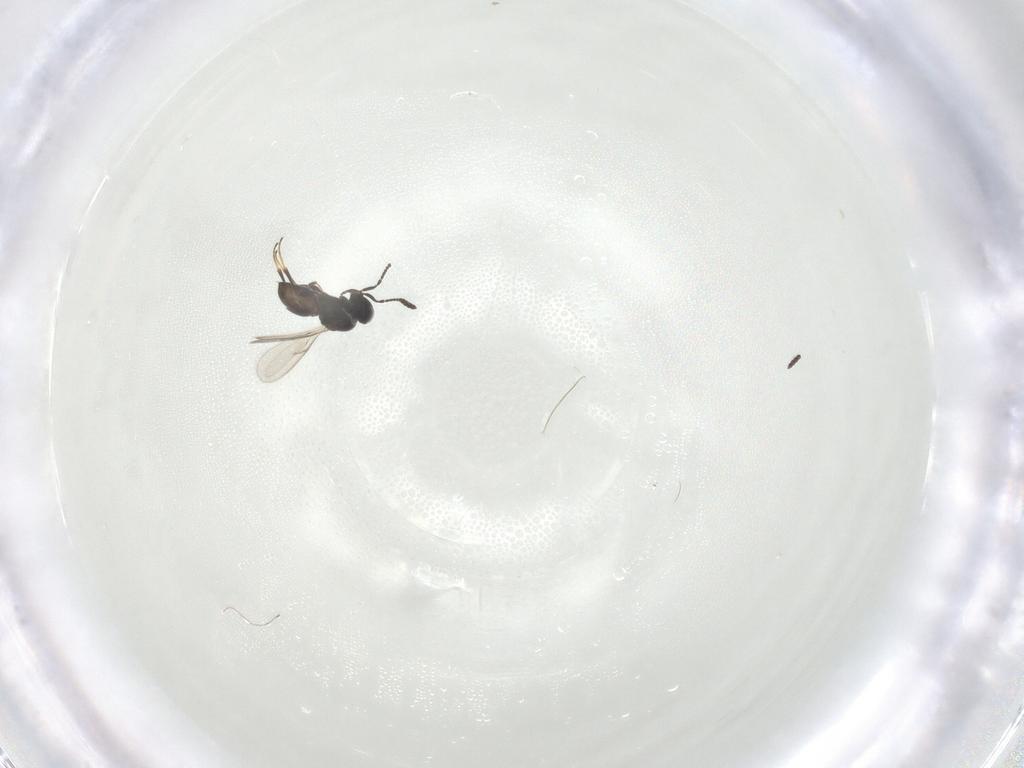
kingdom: Animalia
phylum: Arthropoda
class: Insecta
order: Hymenoptera
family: Scelionidae
